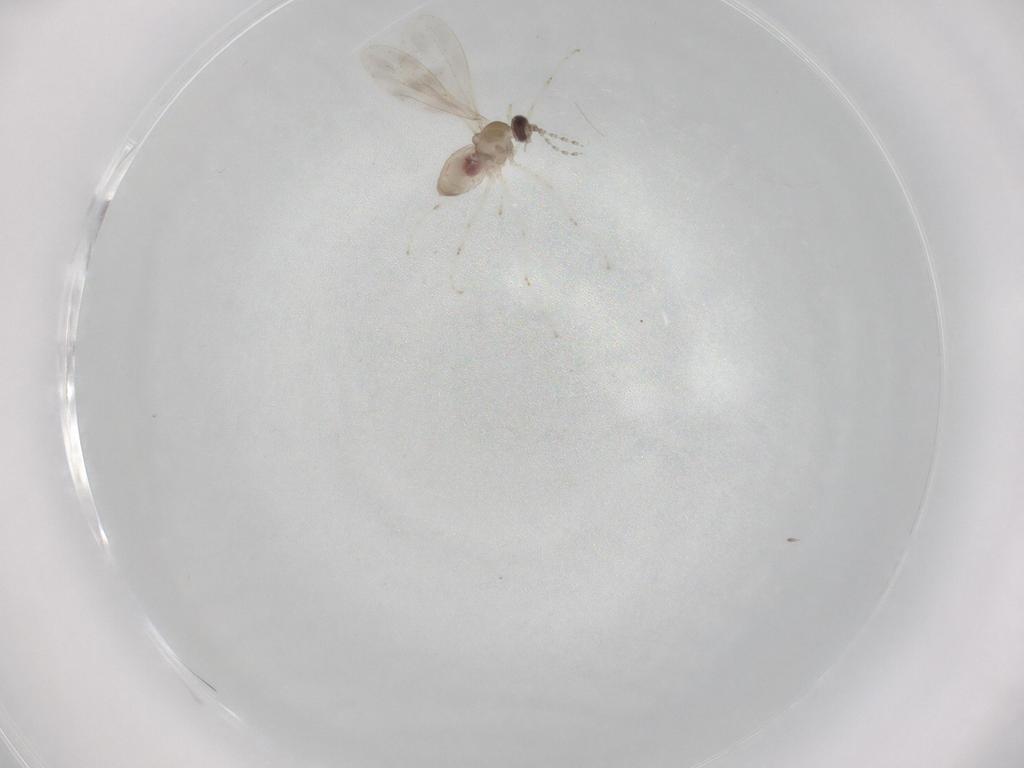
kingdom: Animalia
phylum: Arthropoda
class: Insecta
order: Diptera
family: Cecidomyiidae
